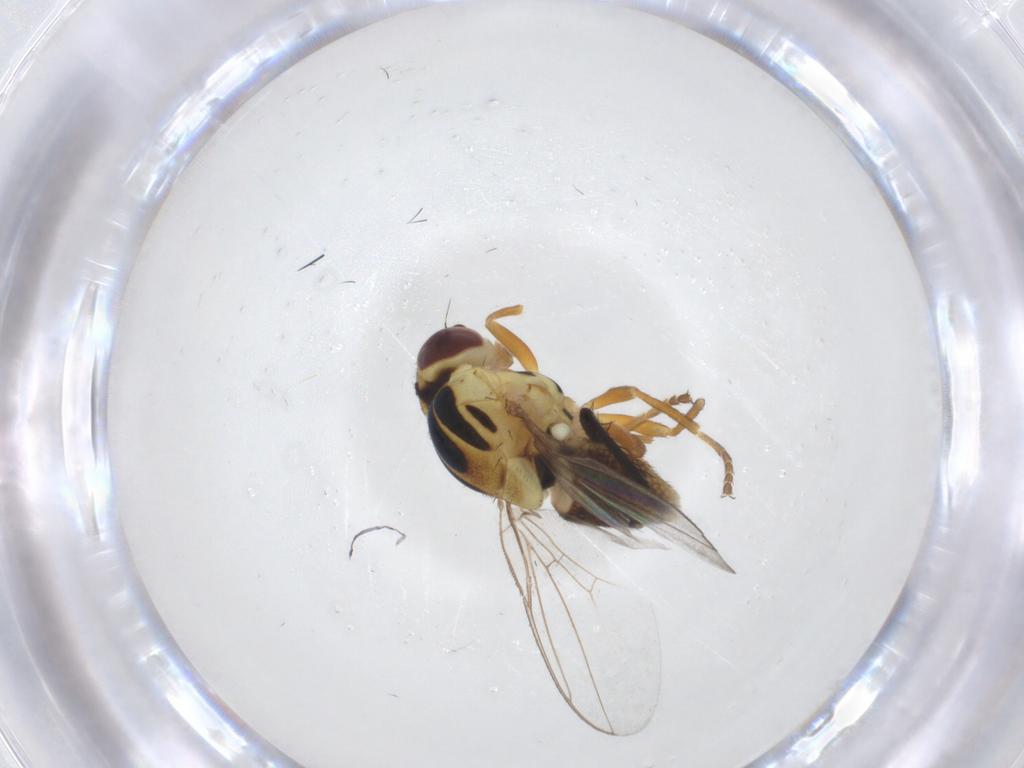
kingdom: Animalia
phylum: Arthropoda
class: Insecta
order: Diptera
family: Chloropidae
